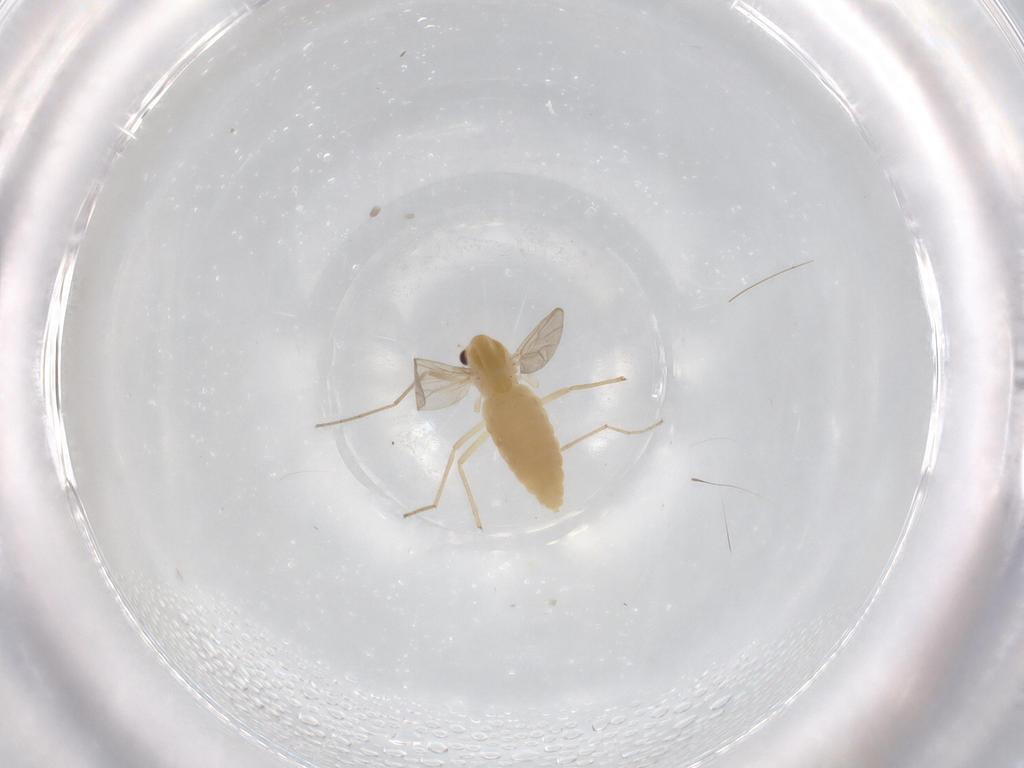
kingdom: Animalia
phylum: Arthropoda
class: Insecta
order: Diptera
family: Chironomidae
